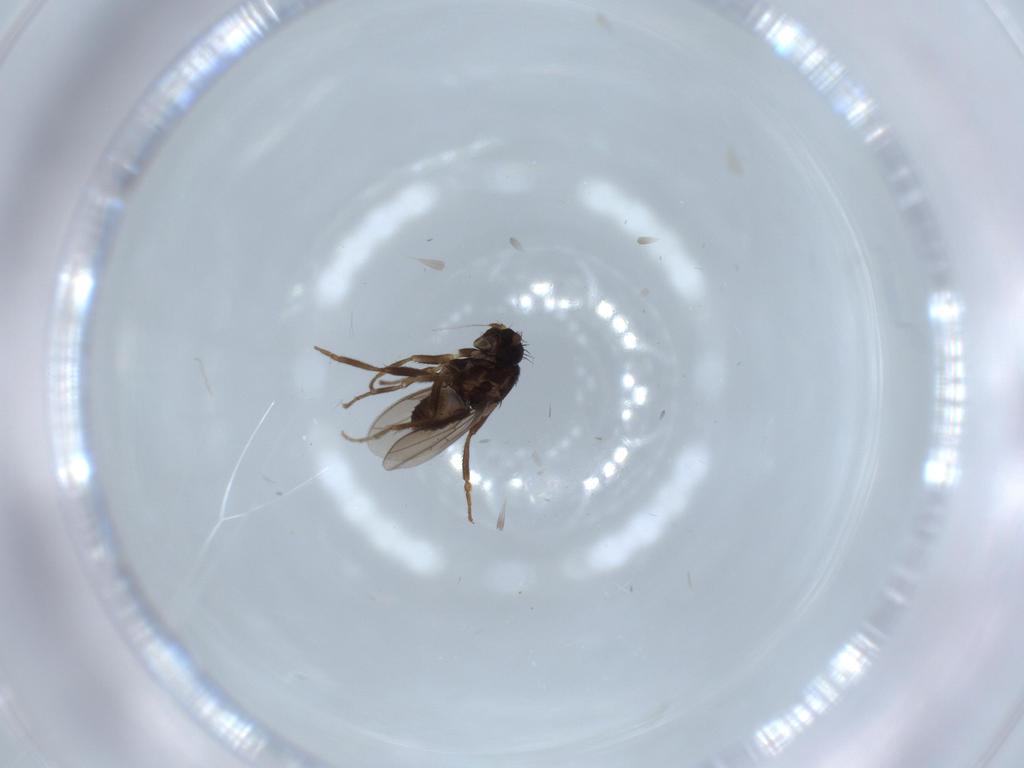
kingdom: Animalia
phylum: Arthropoda
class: Insecta
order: Diptera
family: Sphaeroceridae
